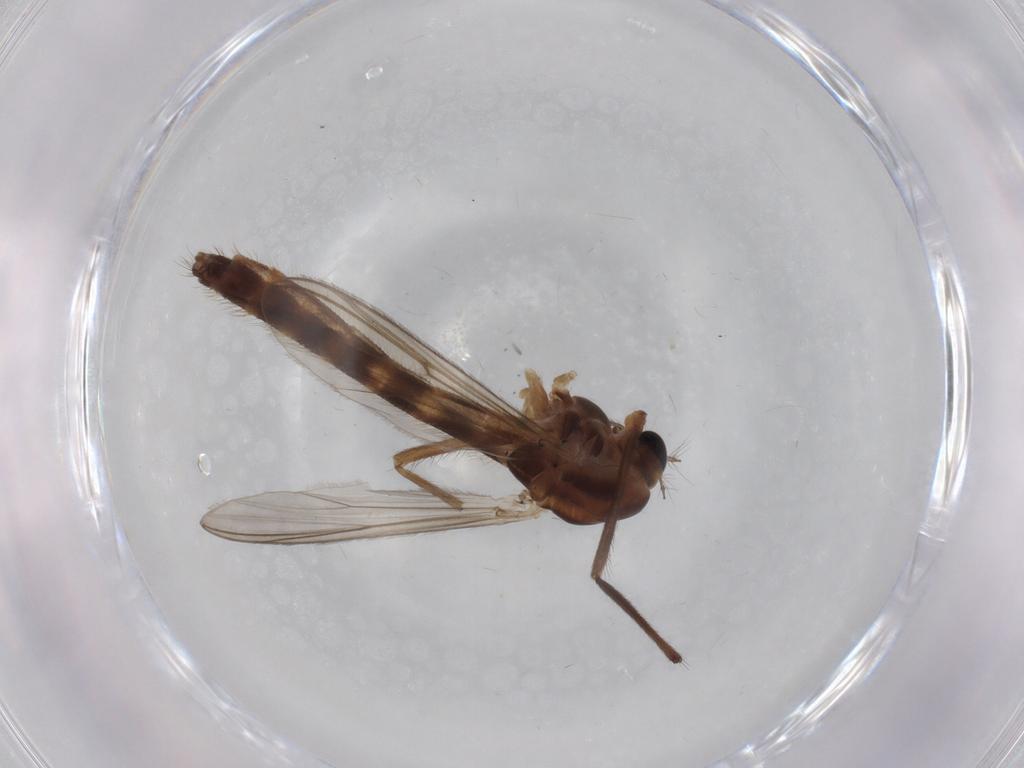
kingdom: Animalia
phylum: Arthropoda
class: Insecta
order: Diptera
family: Chironomidae
